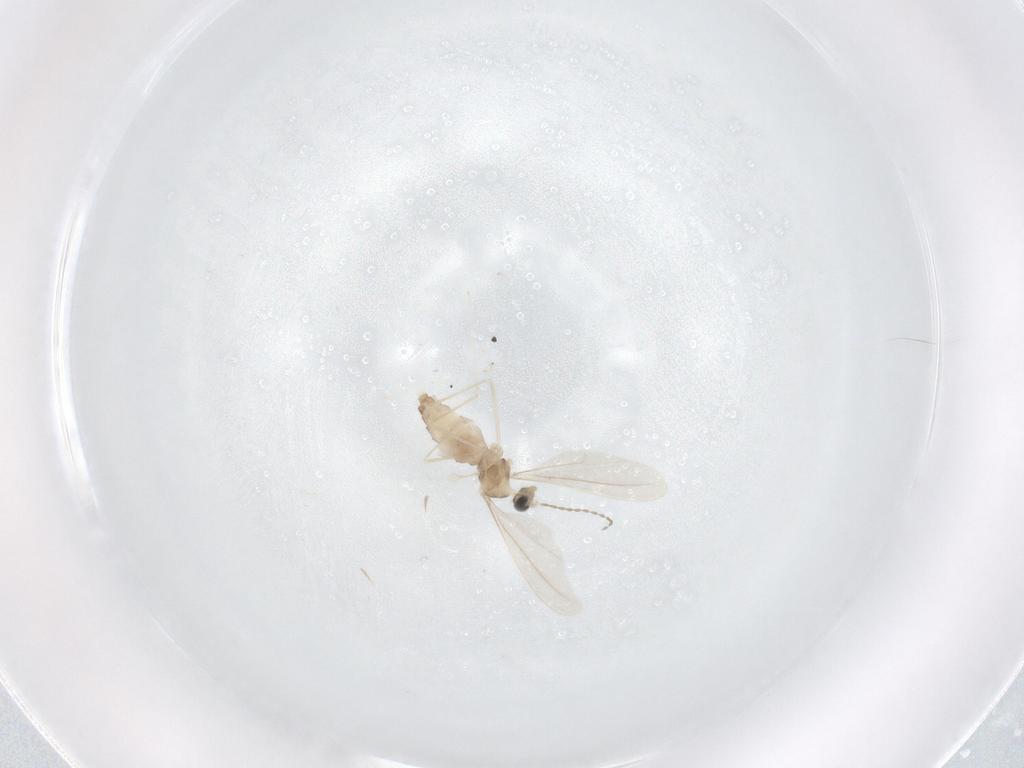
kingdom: Animalia
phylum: Arthropoda
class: Insecta
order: Diptera
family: Cecidomyiidae
